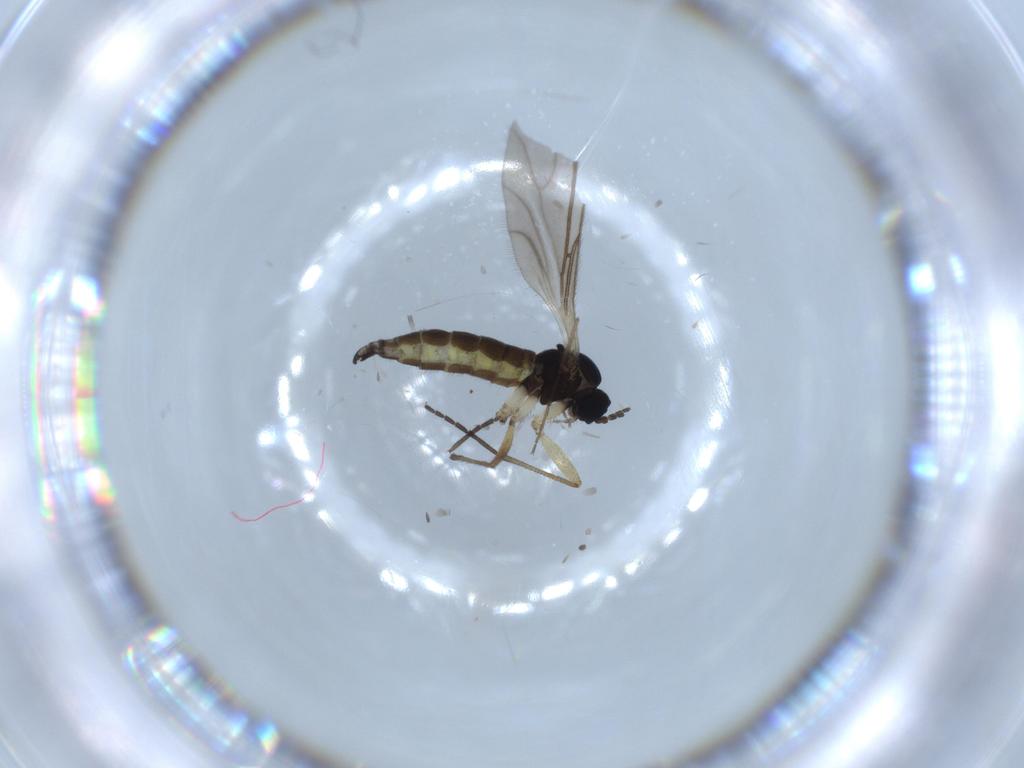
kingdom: Animalia
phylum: Arthropoda
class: Insecta
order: Diptera
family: Sciaridae
